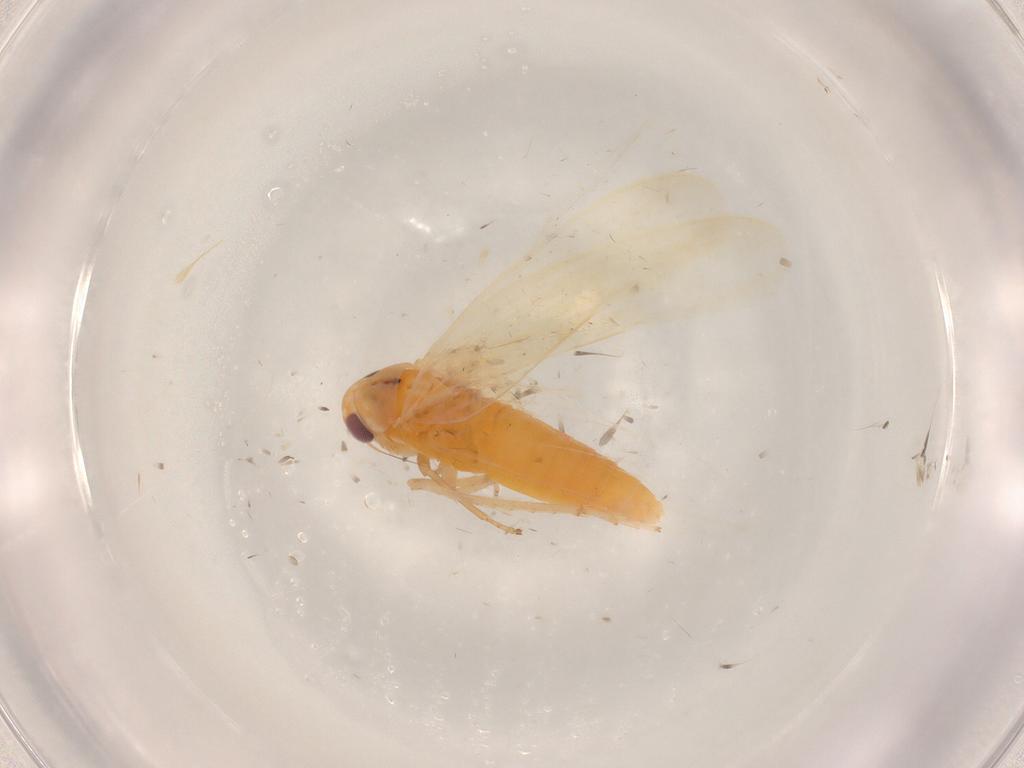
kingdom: Animalia
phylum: Arthropoda
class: Insecta
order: Hemiptera
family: Cicadellidae
